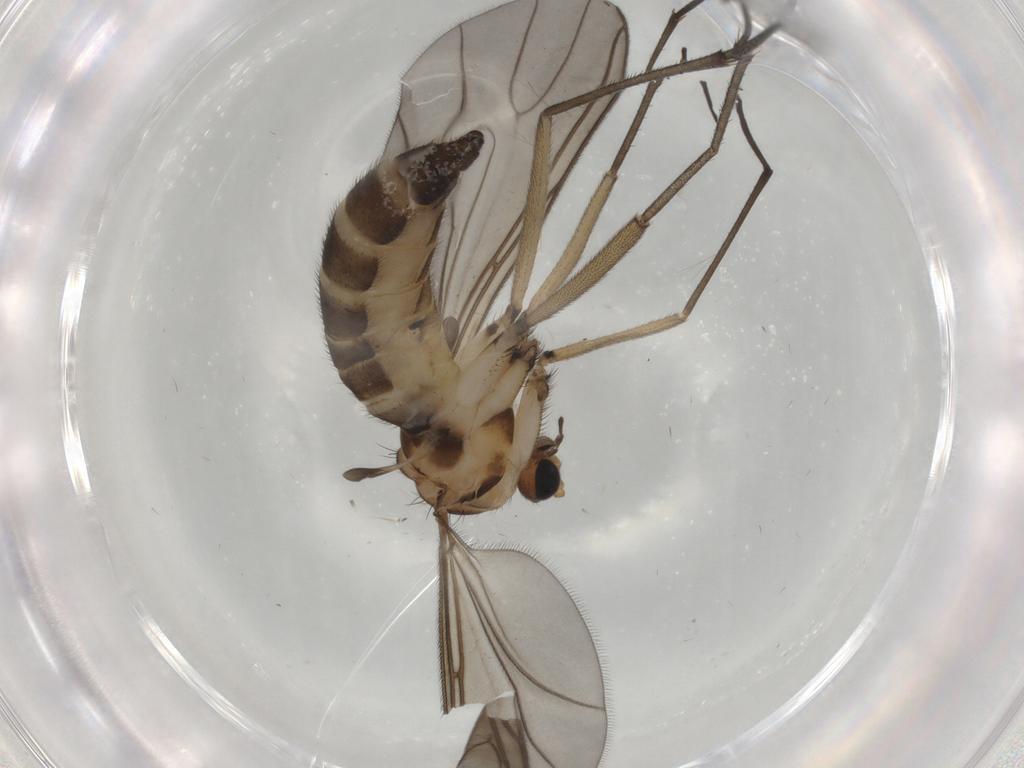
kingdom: Animalia
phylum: Arthropoda
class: Insecta
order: Diptera
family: Sciaridae
